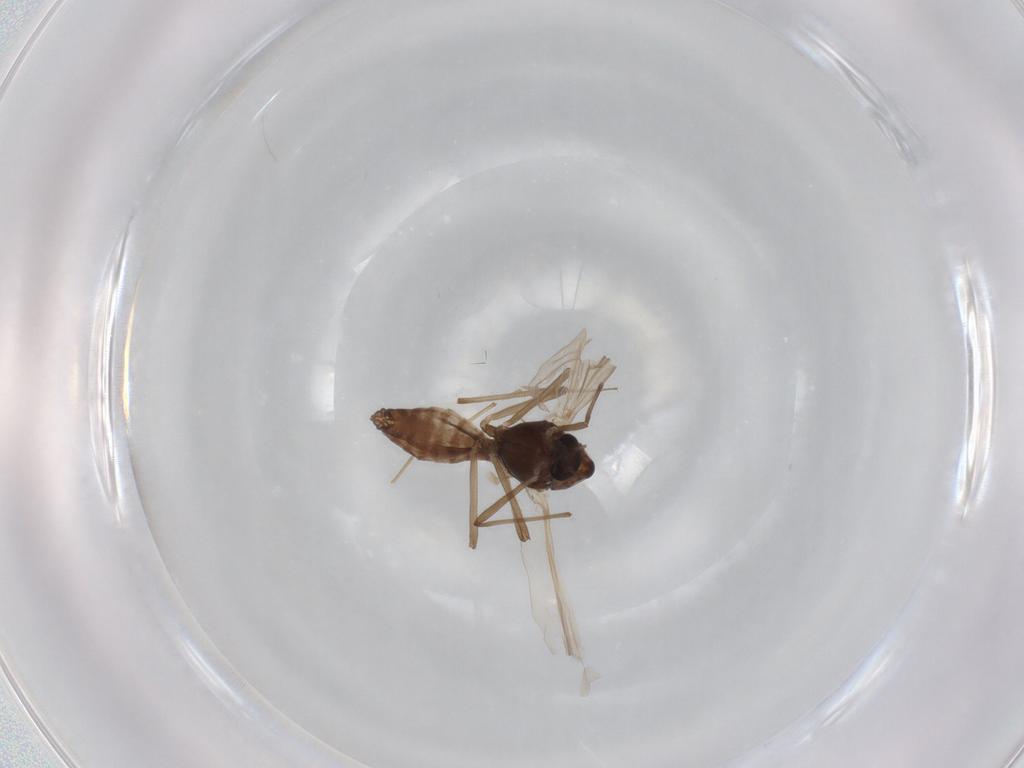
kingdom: Animalia
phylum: Arthropoda
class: Insecta
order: Diptera
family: Chironomidae
